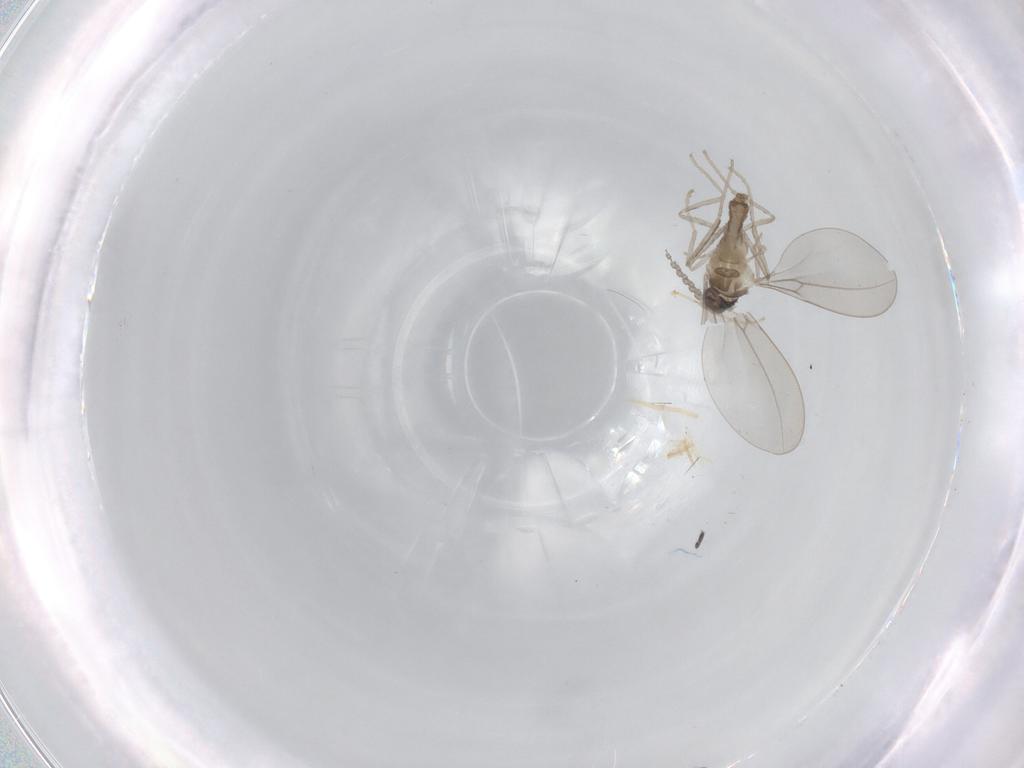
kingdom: Animalia
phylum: Arthropoda
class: Insecta
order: Diptera
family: Cecidomyiidae
